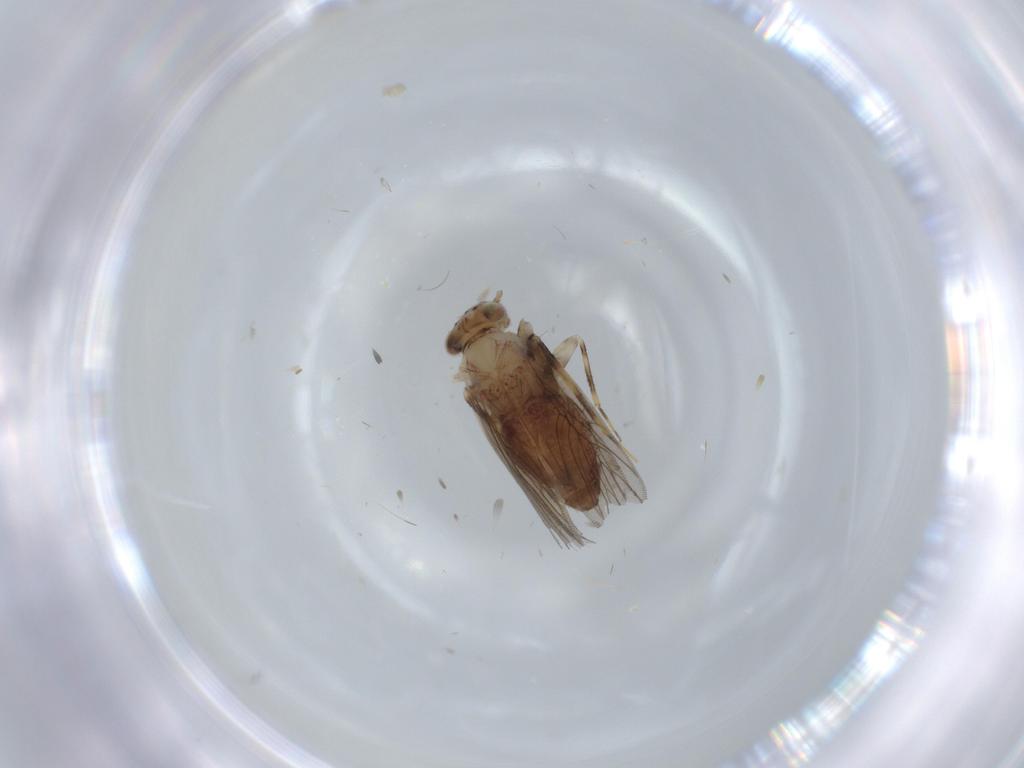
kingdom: Animalia
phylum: Arthropoda
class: Insecta
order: Psocodea
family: Lepidopsocidae
